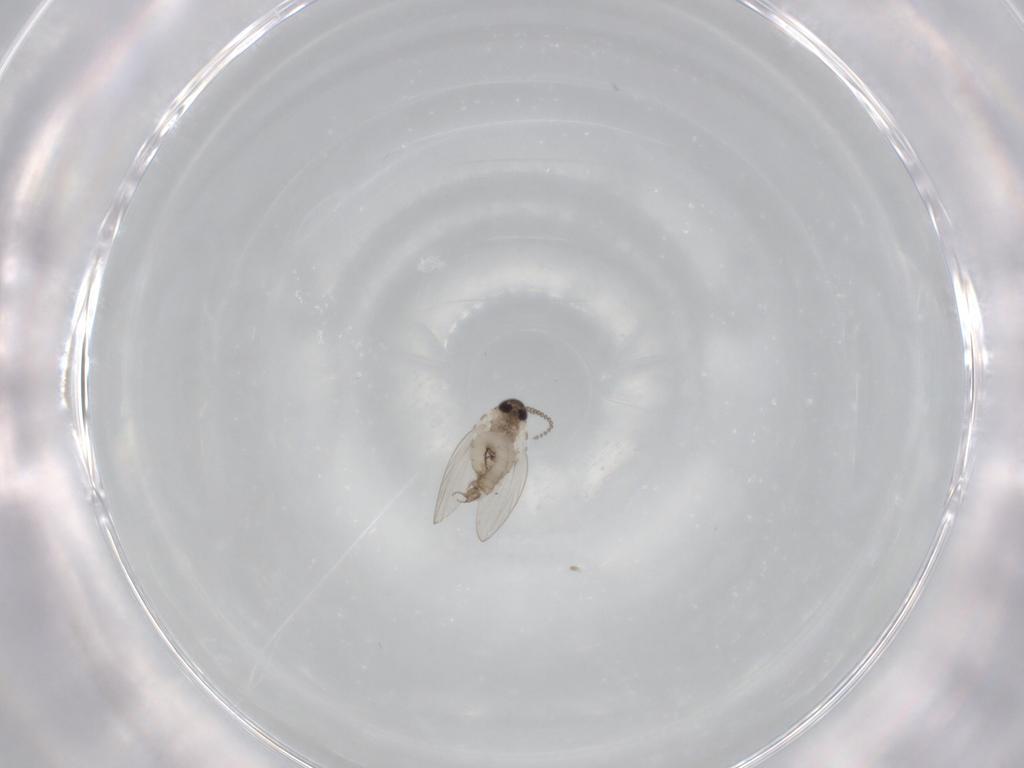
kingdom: Animalia
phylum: Arthropoda
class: Insecta
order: Diptera
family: Psychodidae
